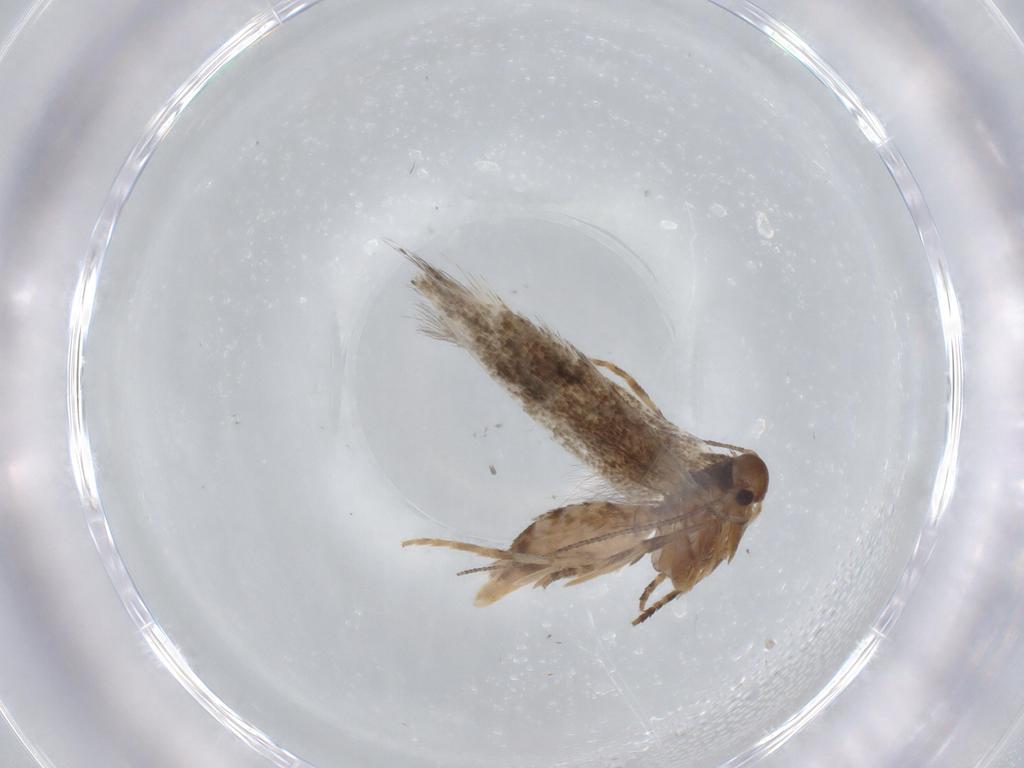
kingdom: Animalia
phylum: Arthropoda
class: Insecta
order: Lepidoptera
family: Elachistidae
